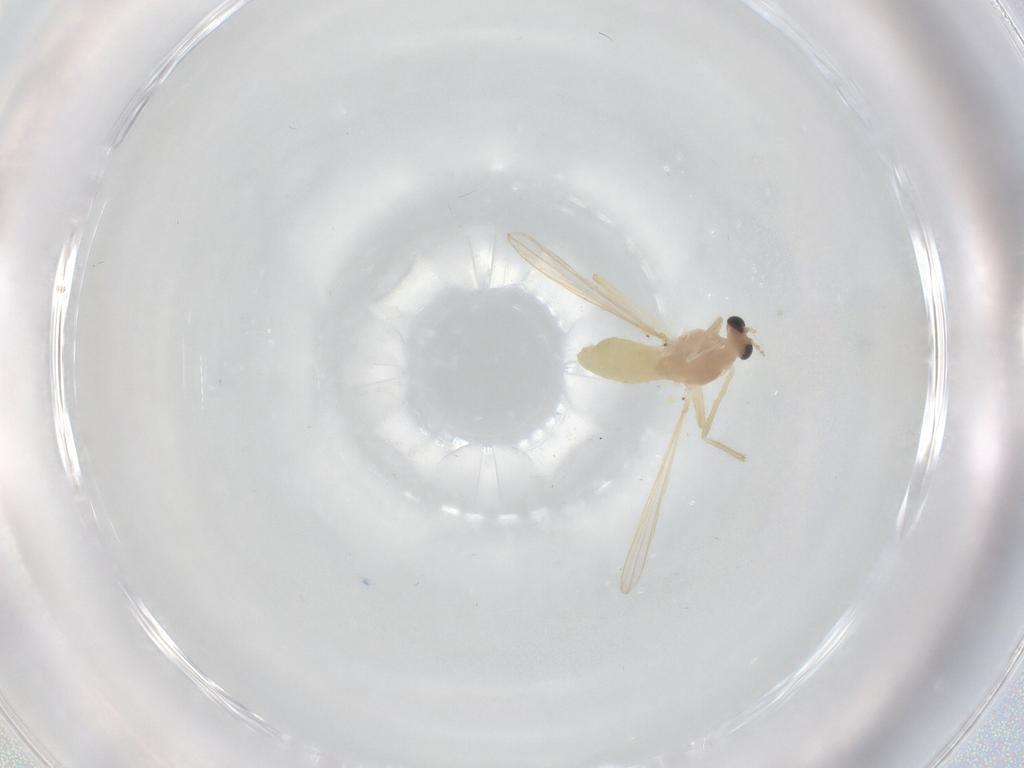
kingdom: Animalia
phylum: Arthropoda
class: Insecta
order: Diptera
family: Chironomidae
